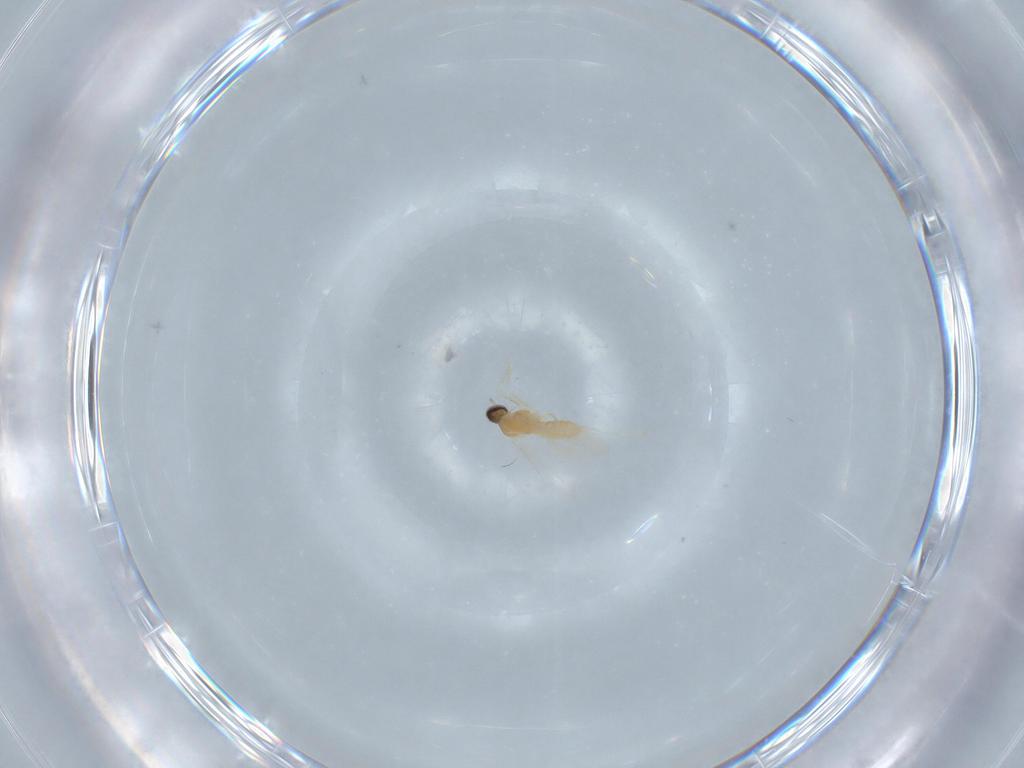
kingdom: Animalia
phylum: Arthropoda
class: Insecta
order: Diptera
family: Cecidomyiidae
